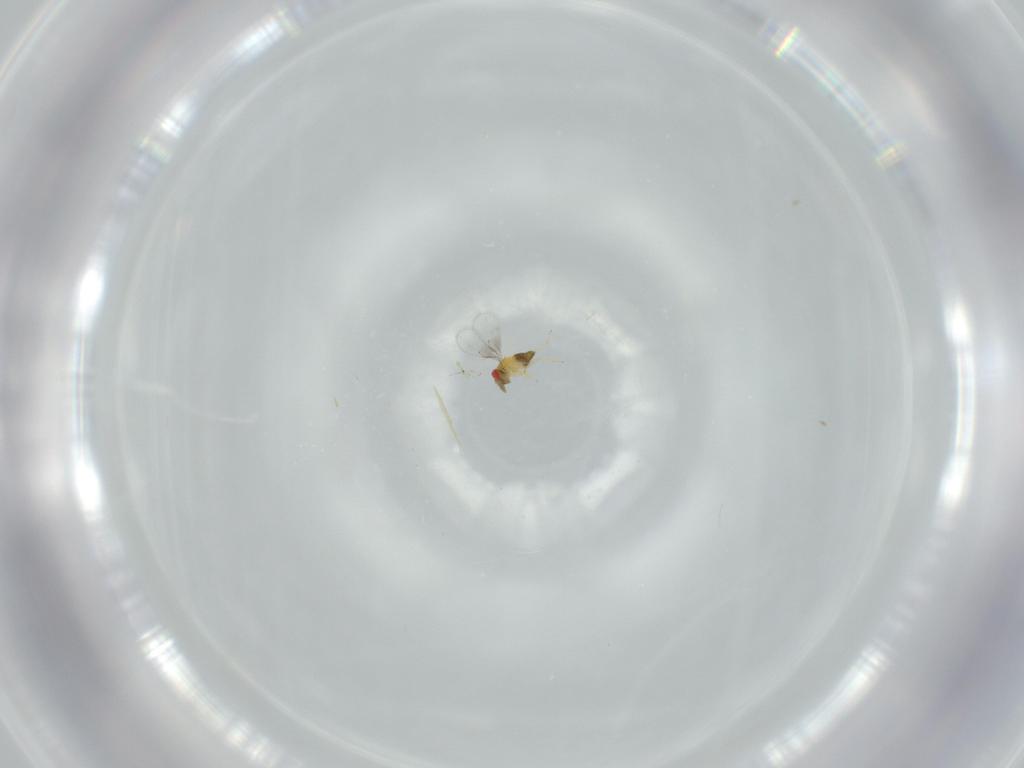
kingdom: Animalia
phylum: Arthropoda
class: Insecta
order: Hymenoptera
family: Trichogrammatidae
